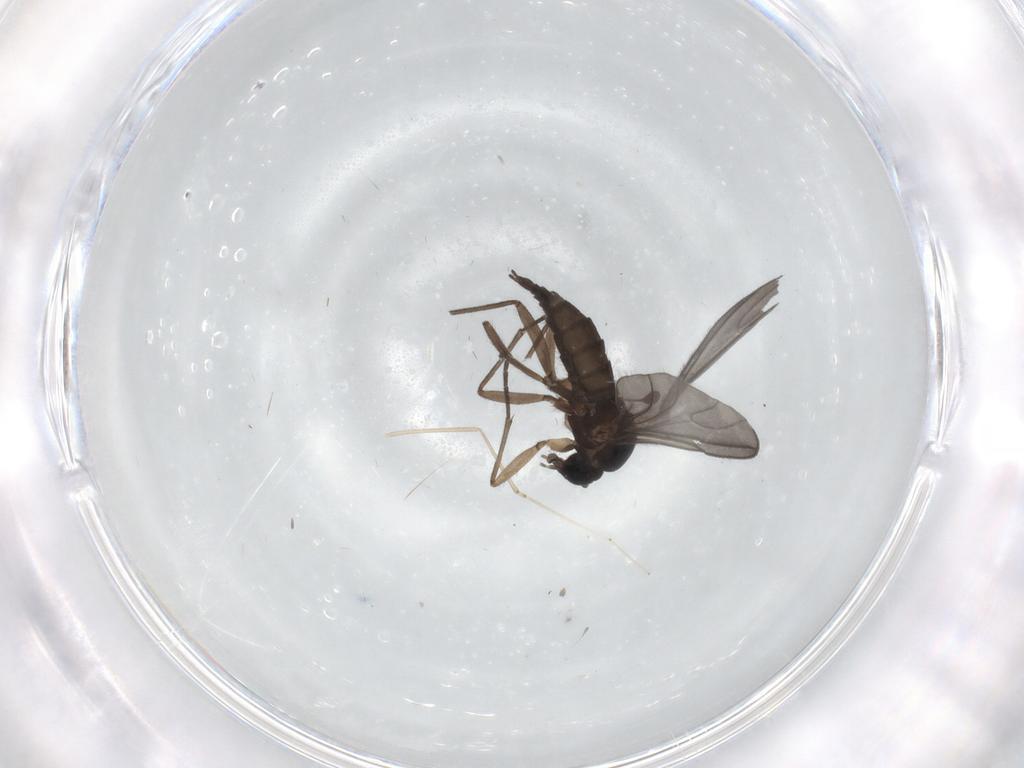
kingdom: Animalia
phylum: Arthropoda
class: Insecta
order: Diptera
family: Sciaridae
